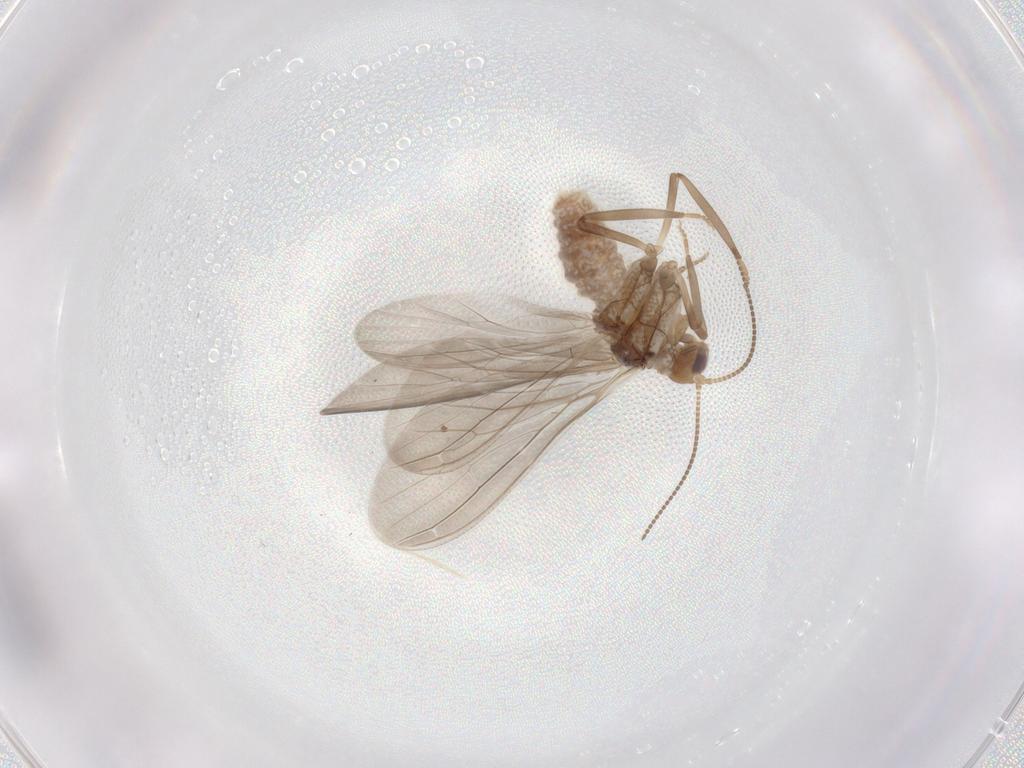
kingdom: Animalia
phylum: Arthropoda
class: Insecta
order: Neuroptera
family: Coniopterygidae
